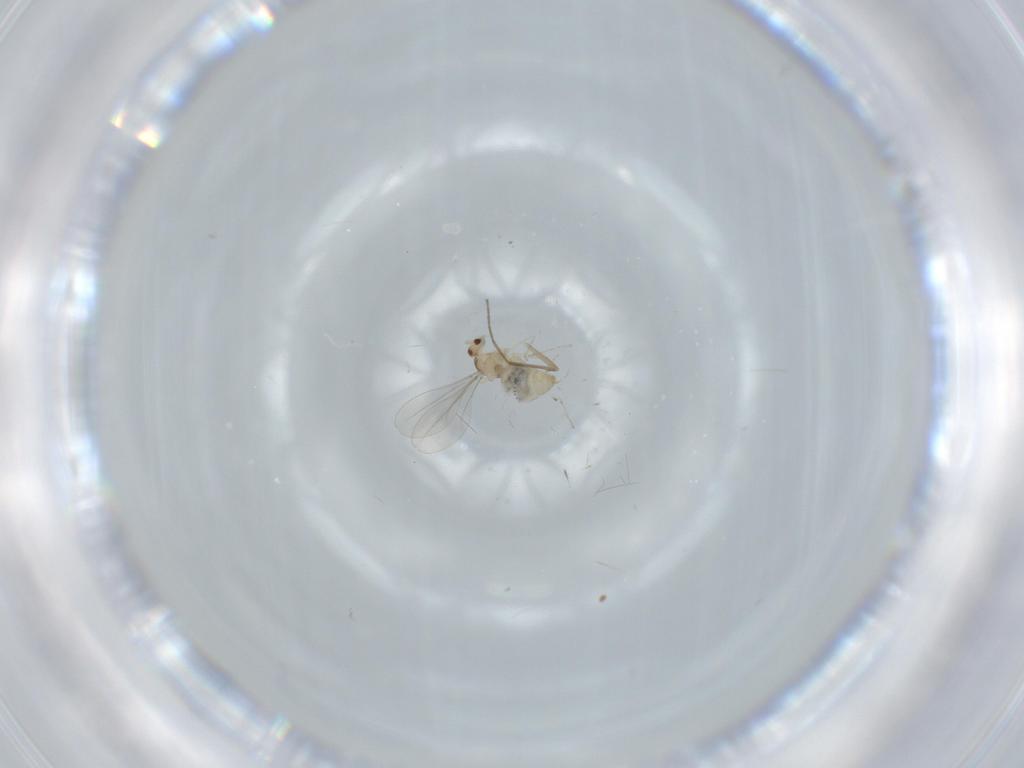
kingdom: Animalia
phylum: Arthropoda
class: Insecta
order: Diptera
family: Cecidomyiidae
